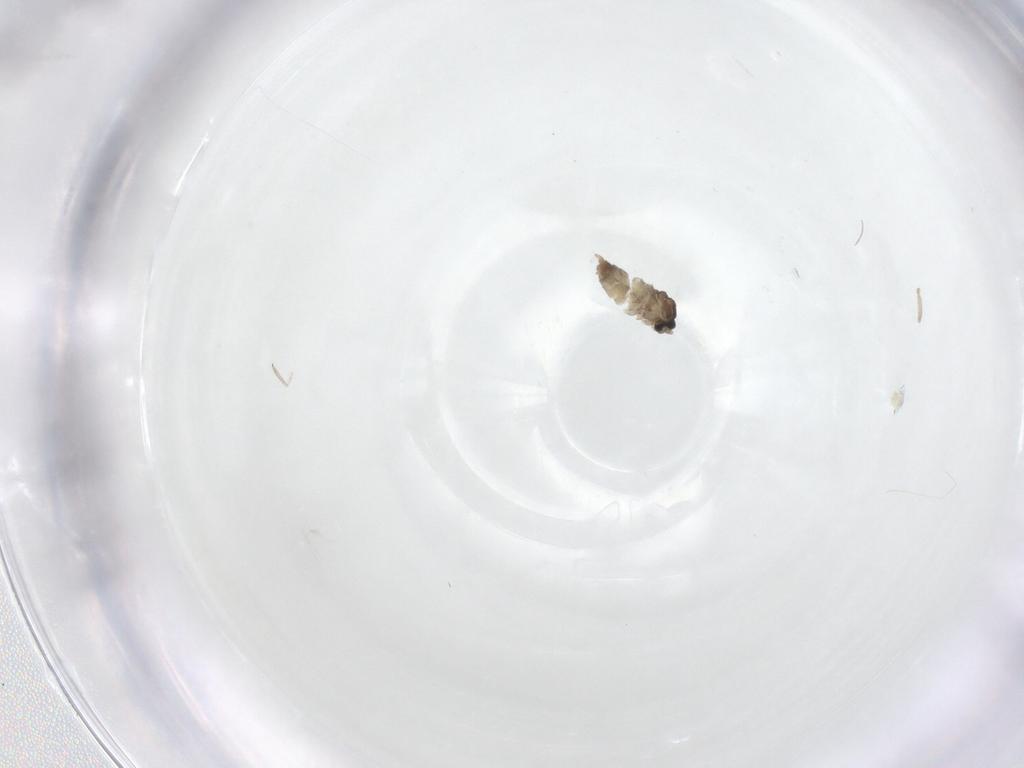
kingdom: Animalia
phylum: Arthropoda
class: Insecta
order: Diptera
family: Cecidomyiidae
